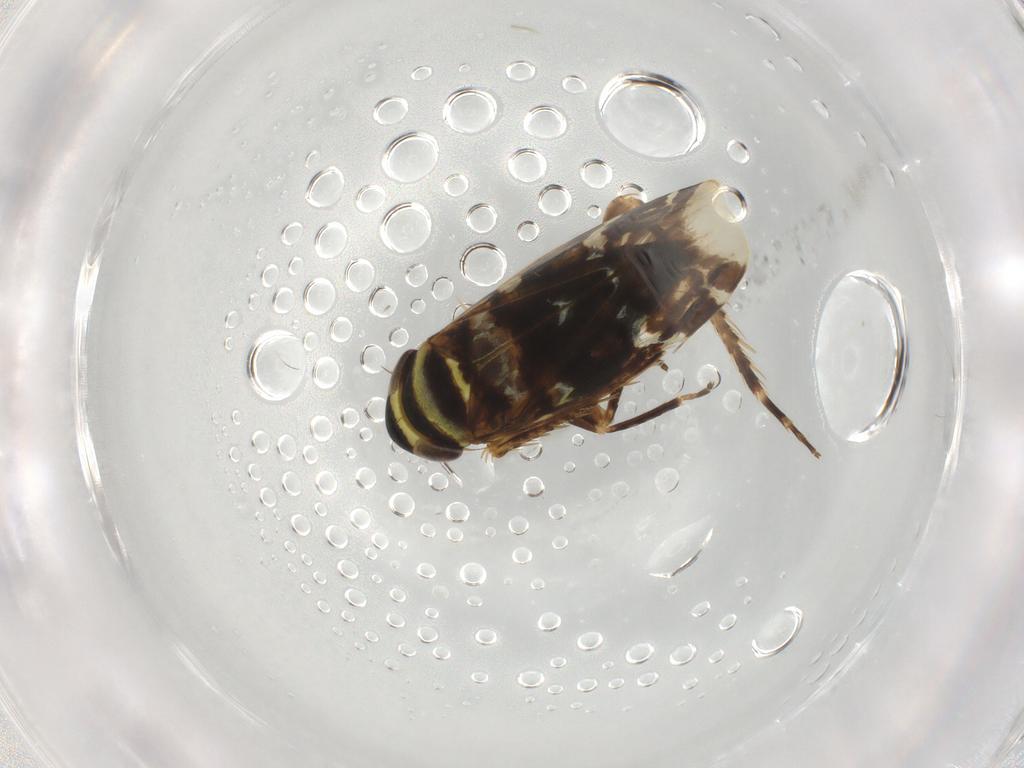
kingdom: Animalia
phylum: Arthropoda
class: Insecta
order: Hemiptera
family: Cicadellidae
